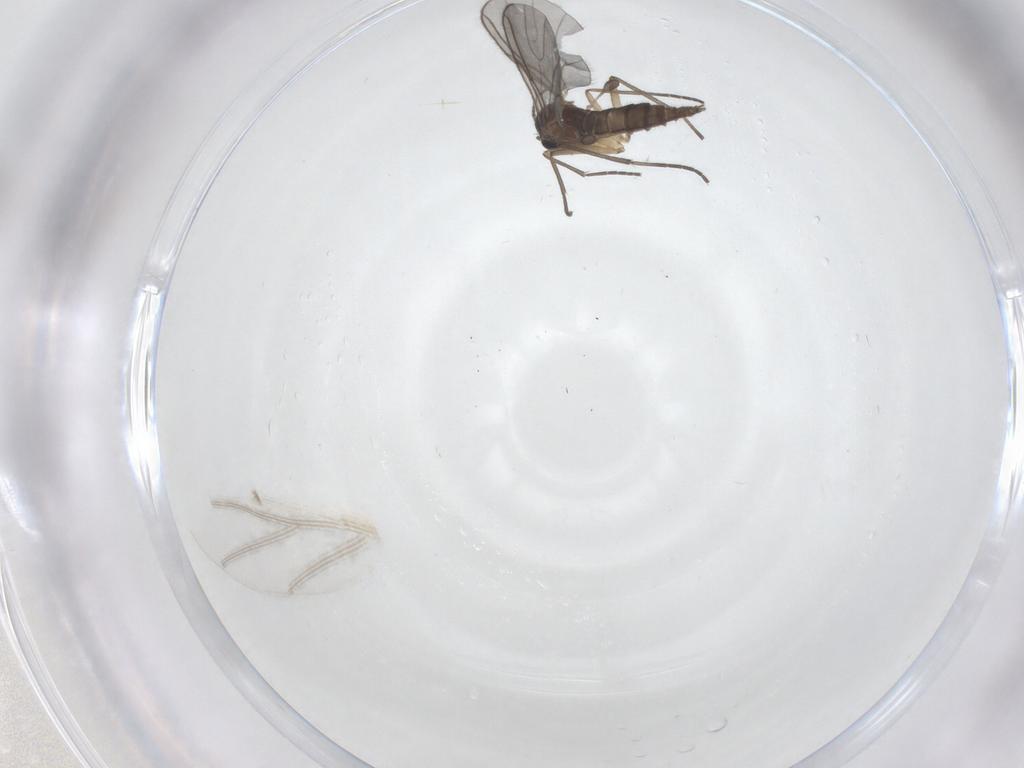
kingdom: Animalia
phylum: Arthropoda
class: Insecta
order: Diptera
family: Sciaridae
